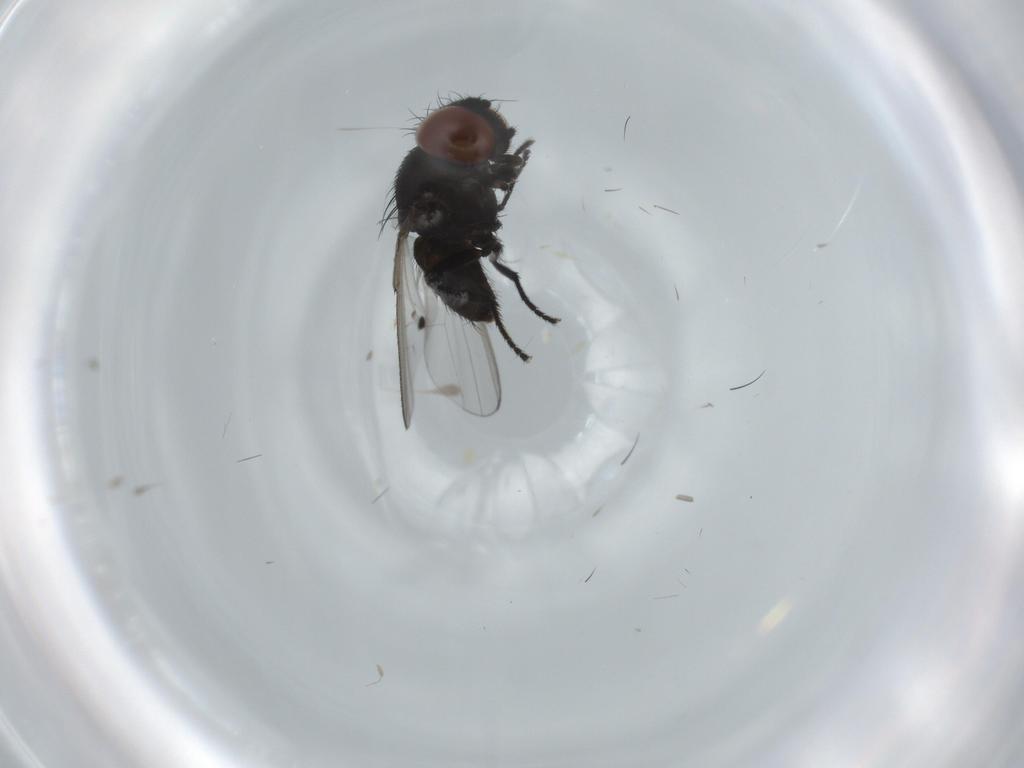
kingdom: Animalia
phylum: Arthropoda
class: Insecta
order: Diptera
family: Milichiidae
